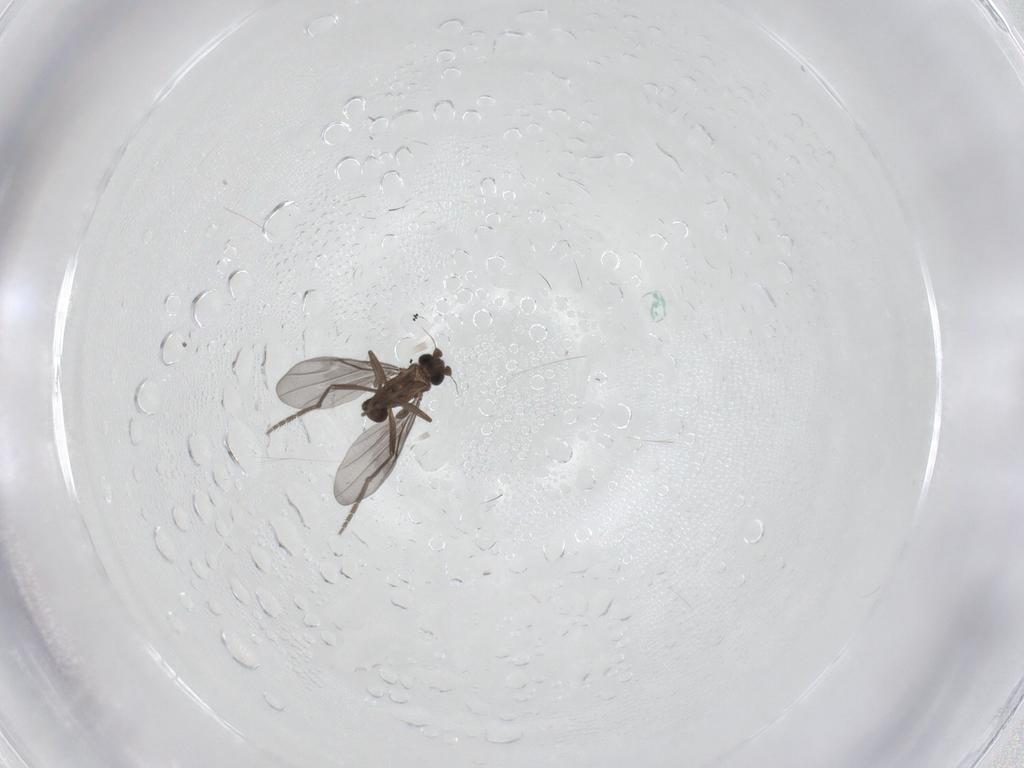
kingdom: Animalia
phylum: Arthropoda
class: Insecta
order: Diptera
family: Phoridae
